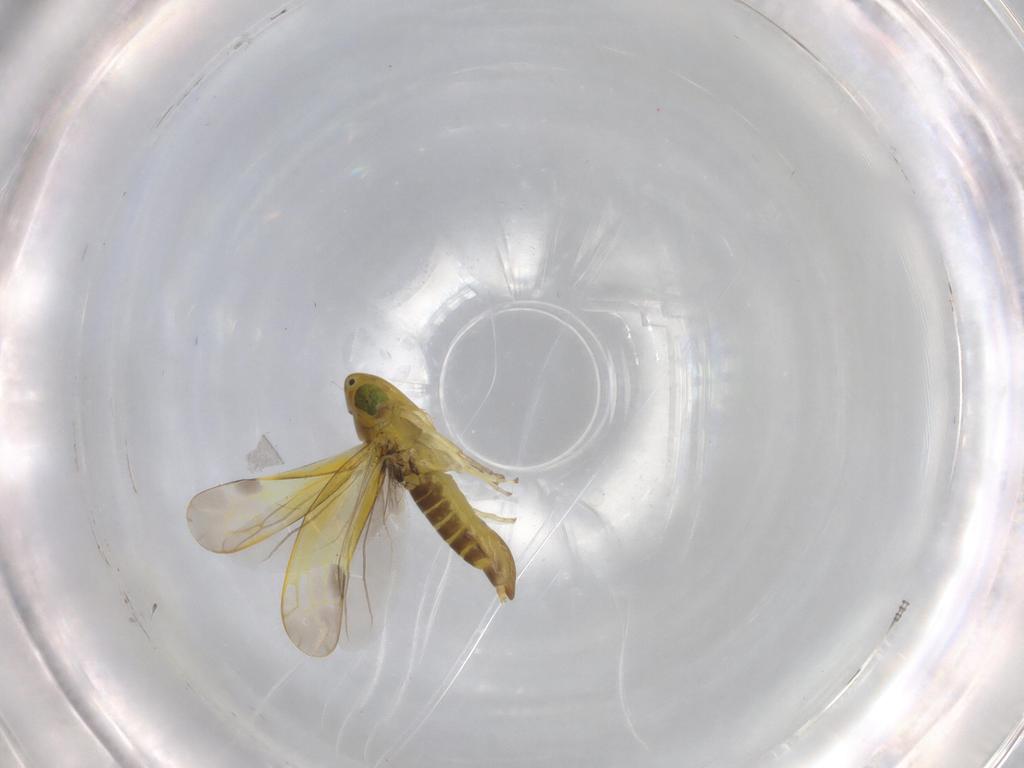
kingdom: Animalia
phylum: Arthropoda
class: Insecta
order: Hemiptera
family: Cicadellidae
